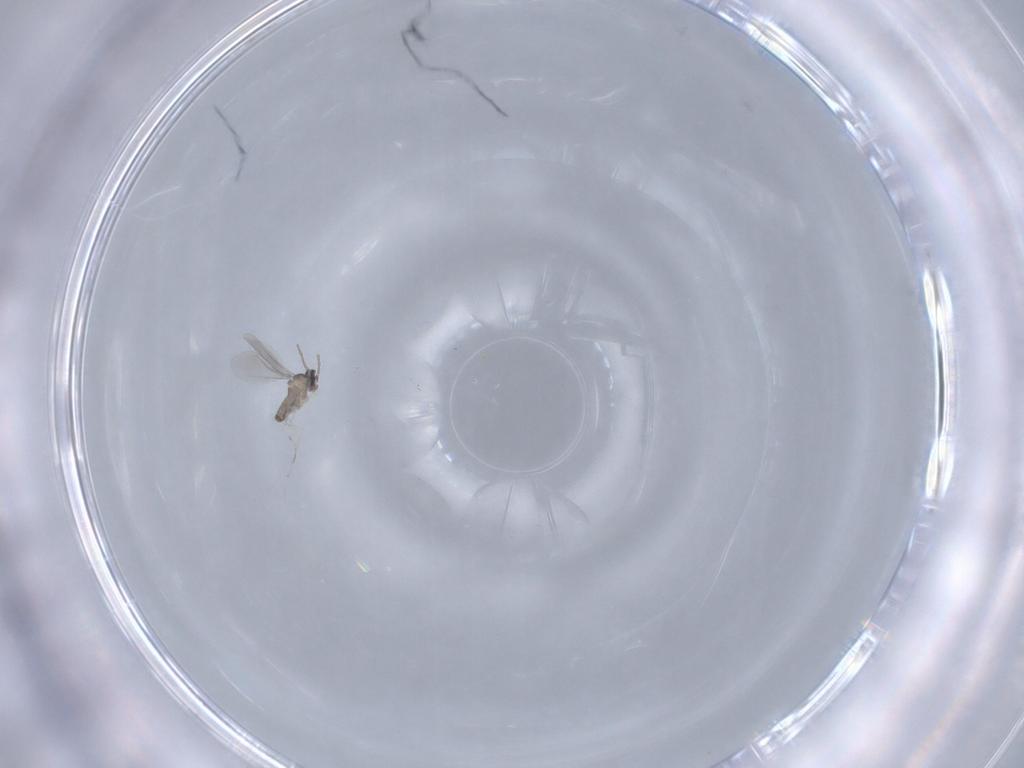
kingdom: Animalia
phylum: Arthropoda
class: Insecta
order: Diptera
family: Cecidomyiidae
